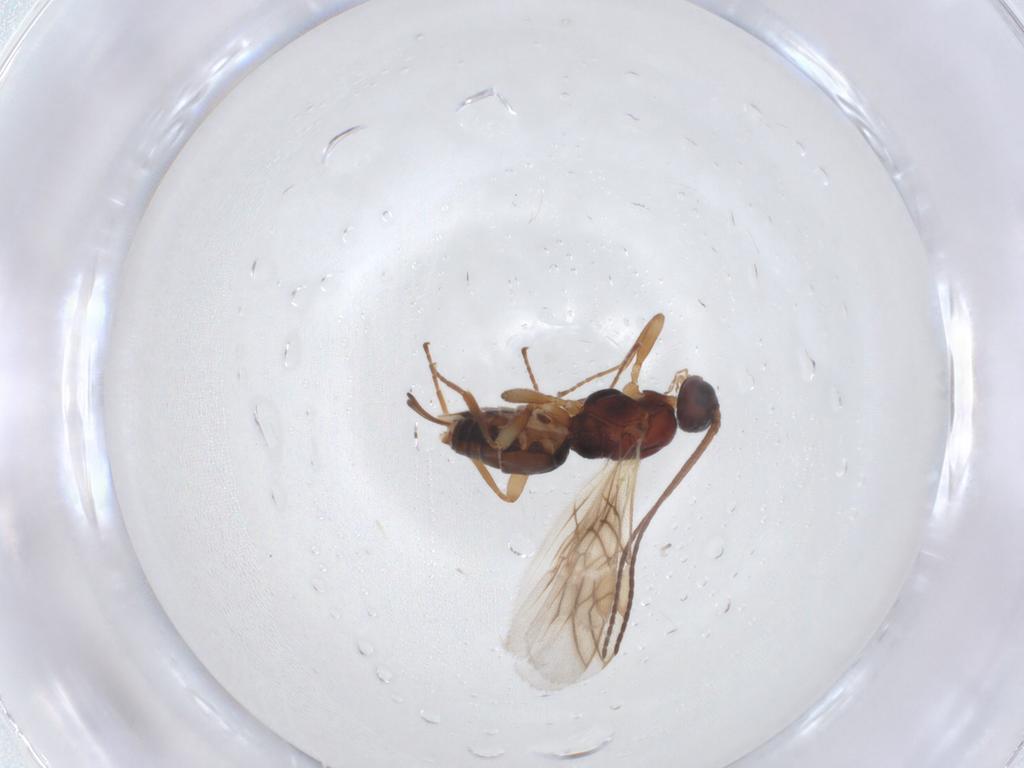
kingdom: Animalia
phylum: Arthropoda
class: Insecta
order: Hymenoptera
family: Braconidae
